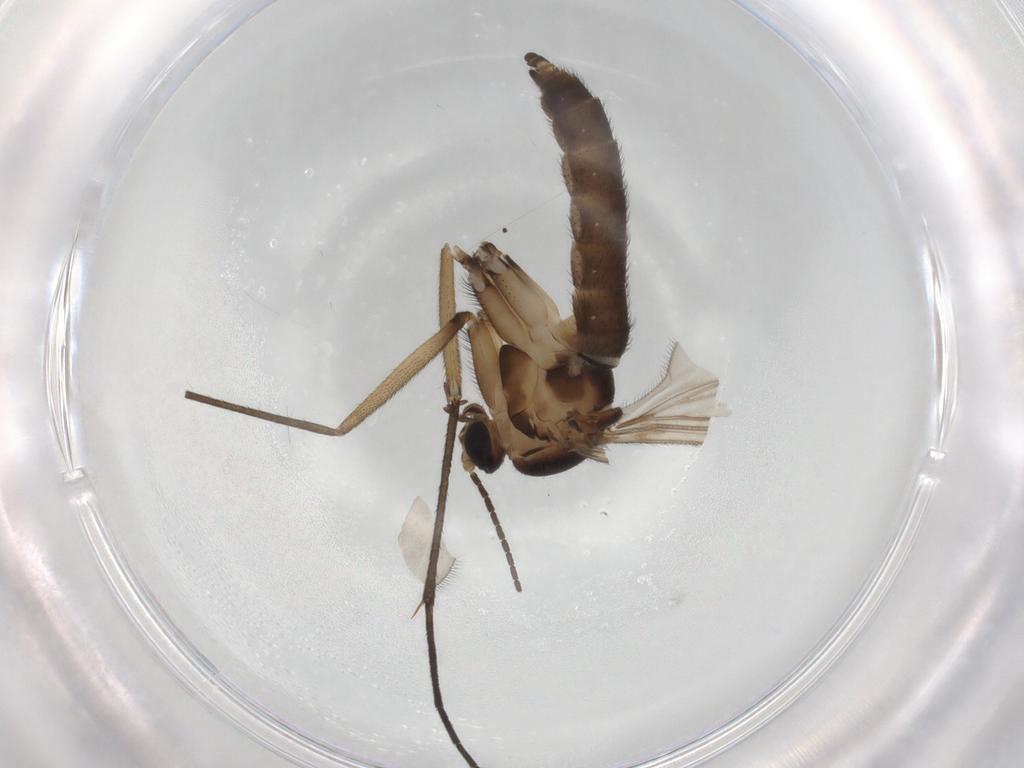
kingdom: Animalia
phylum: Arthropoda
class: Insecta
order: Diptera
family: Sciaridae
